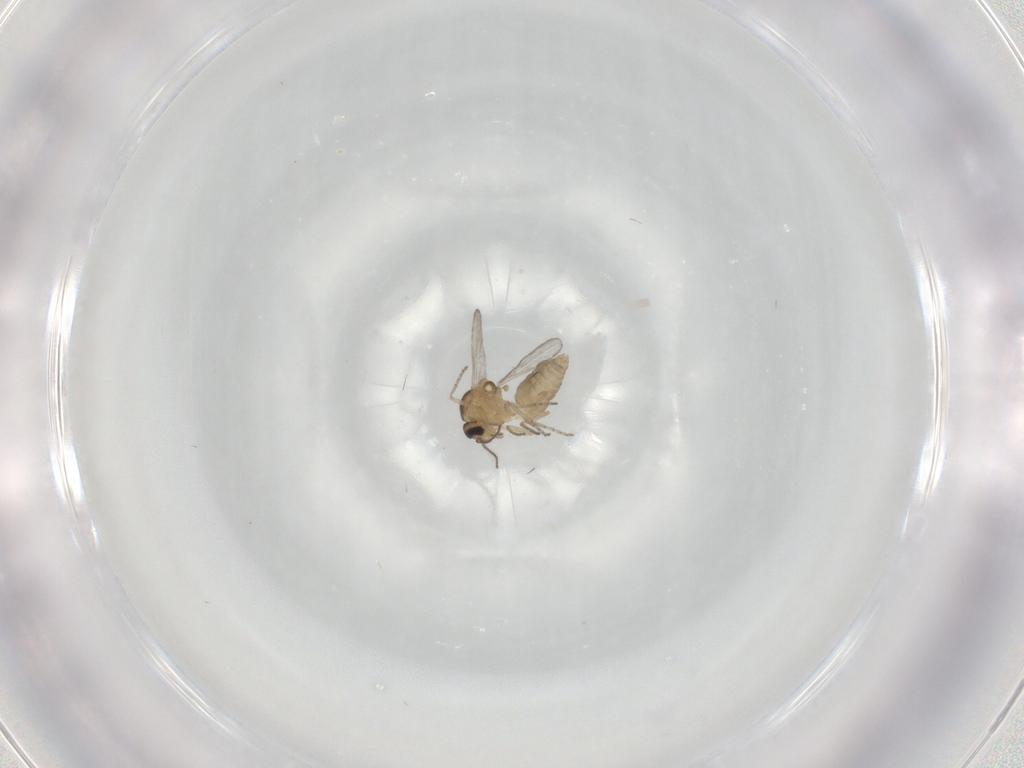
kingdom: Animalia
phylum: Arthropoda
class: Insecta
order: Diptera
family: Ceratopogonidae
